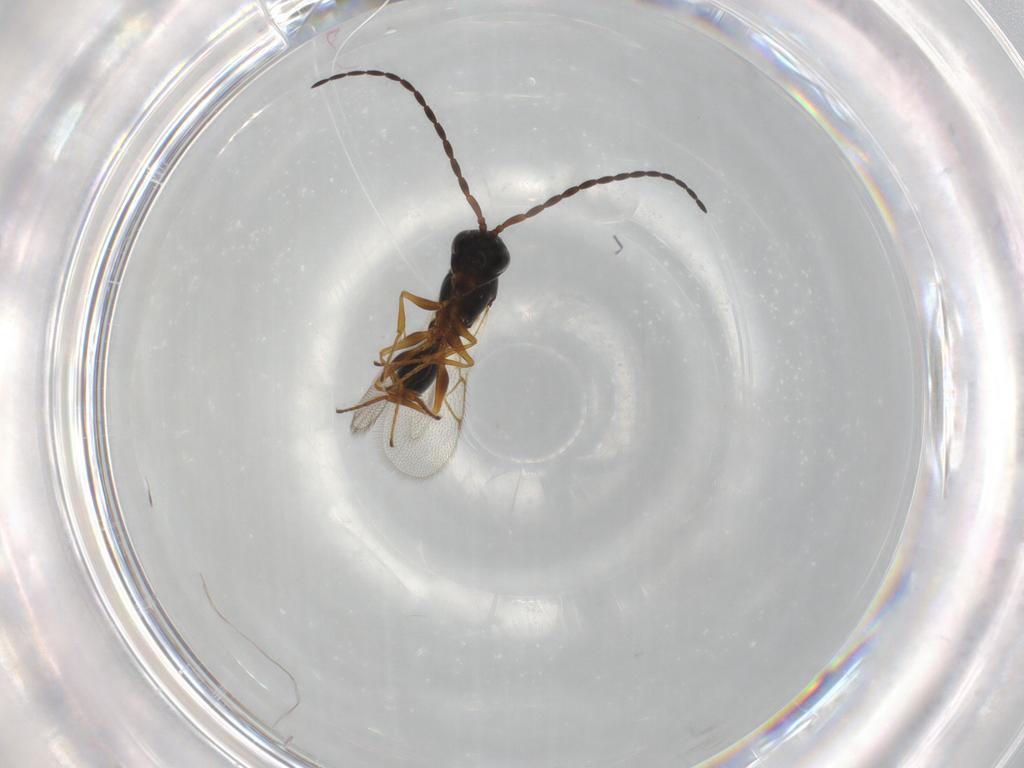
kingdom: Animalia
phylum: Arthropoda
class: Insecta
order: Hymenoptera
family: Figitidae
